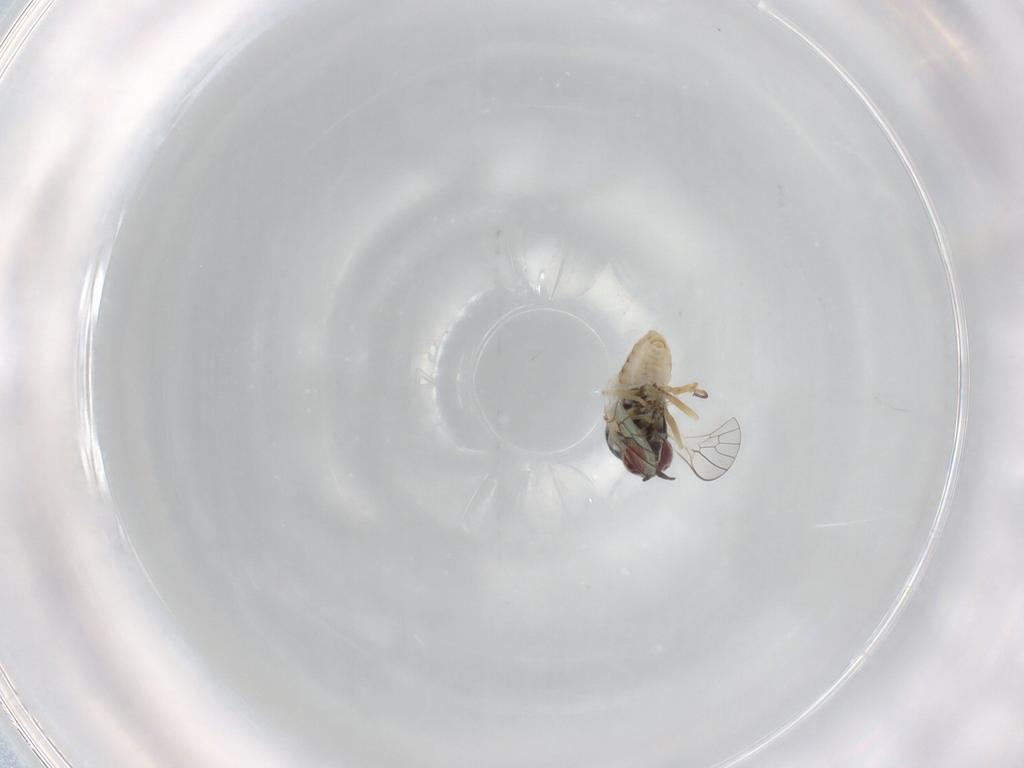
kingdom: Animalia
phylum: Arthropoda
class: Insecta
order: Diptera
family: Bombyliidae
